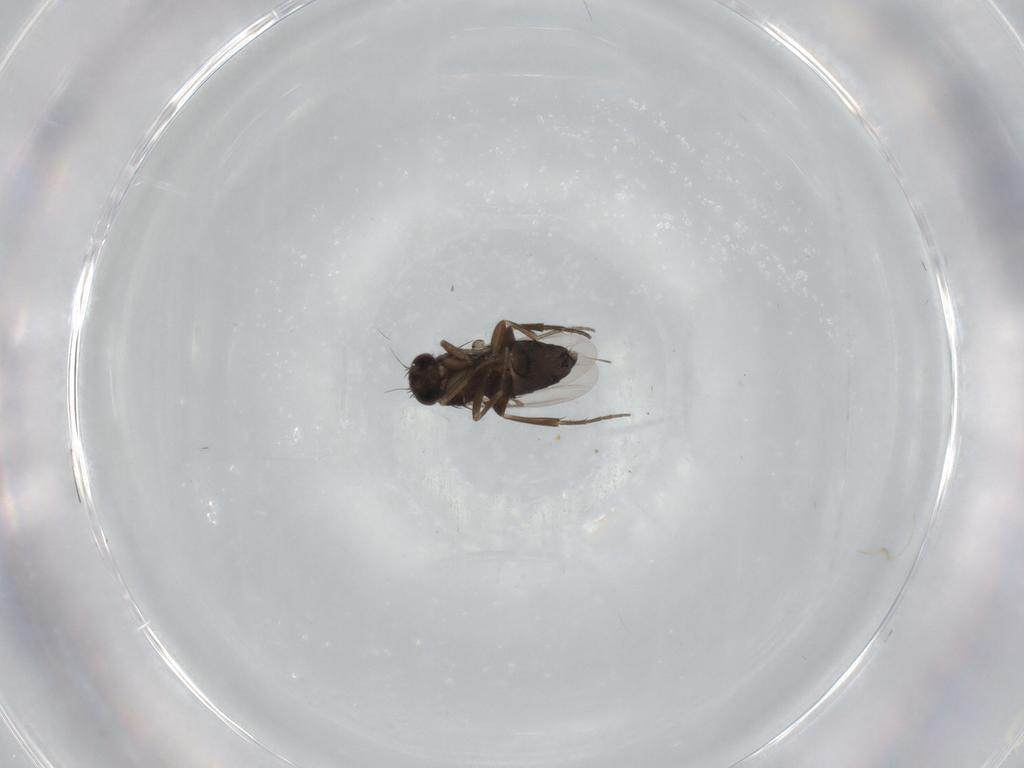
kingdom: Animalia
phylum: Arthropoda
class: Insecta
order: Diptera
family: Phoridae
